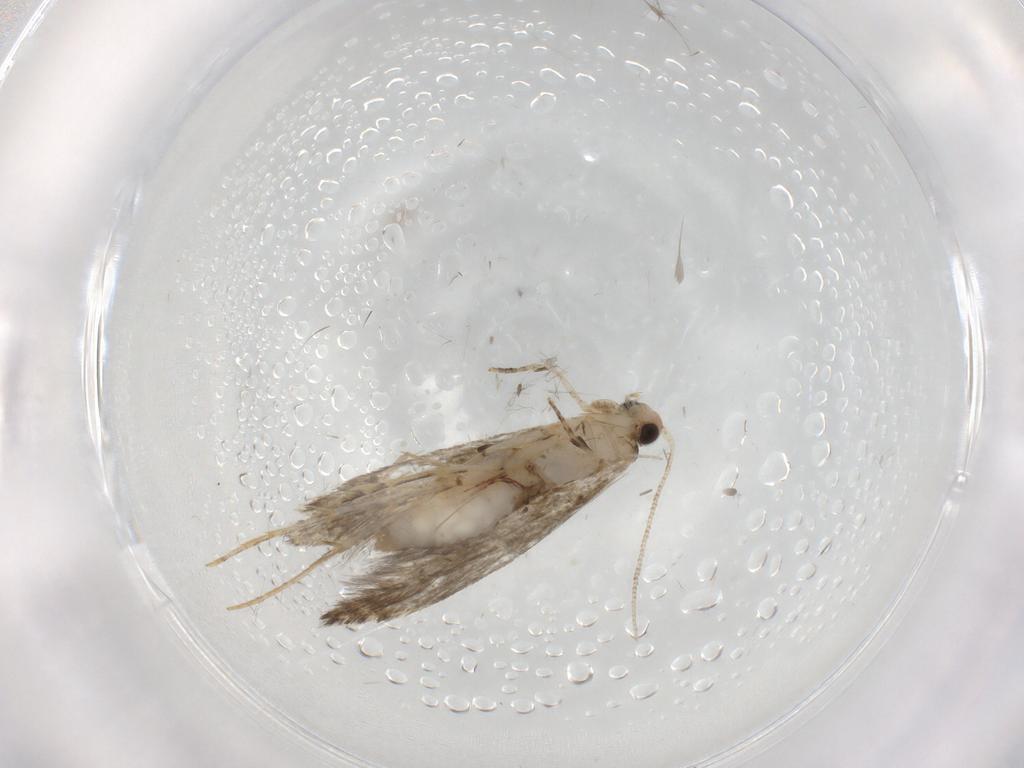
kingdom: Animalia
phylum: Arthropoda
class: Insecta
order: Lepidoptera
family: Meessiidae
